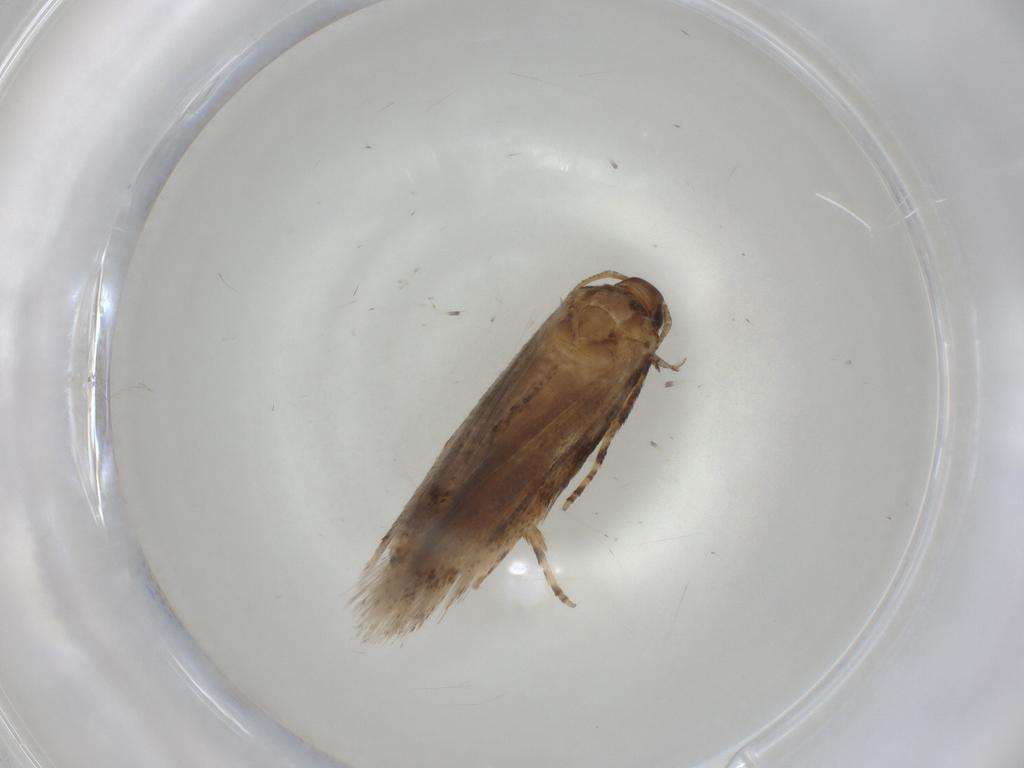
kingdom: Animalia
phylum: Arthropoda
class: Insecta
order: Lepidoptera
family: Gelechiidae
